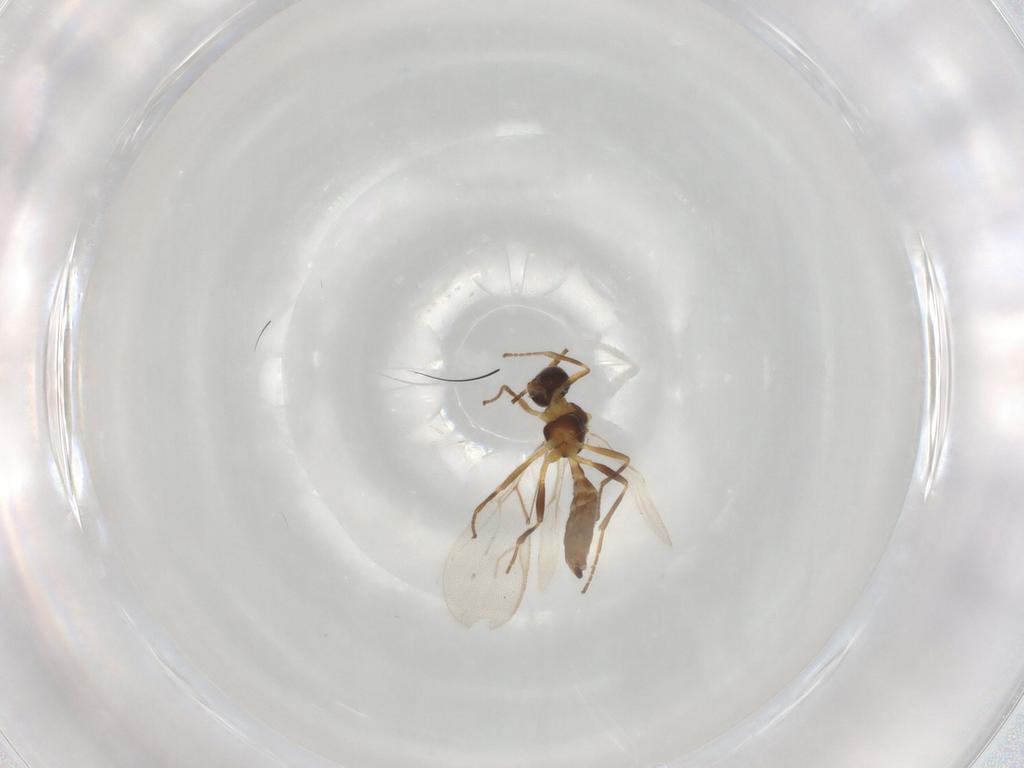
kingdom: Animalia
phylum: Arthropoda
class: Insecta
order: Hymenoptera
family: Braconidae
